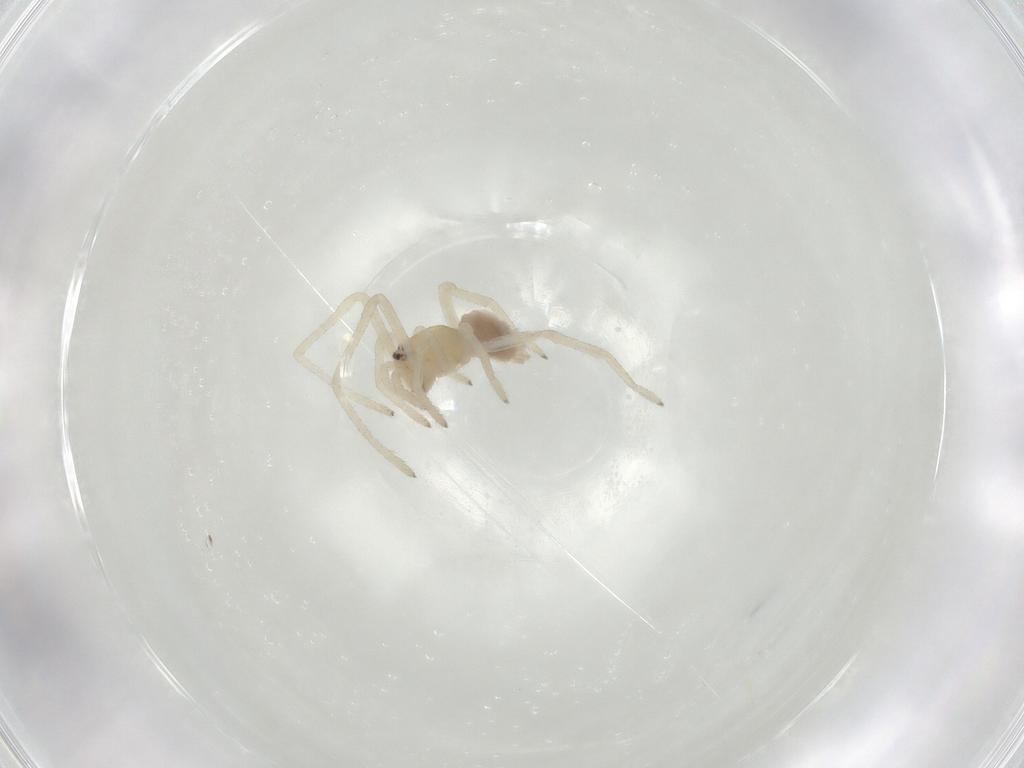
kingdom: Animalia
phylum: Arthropoda
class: Arachnida
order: Araneae
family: Cheiracanthiidae
